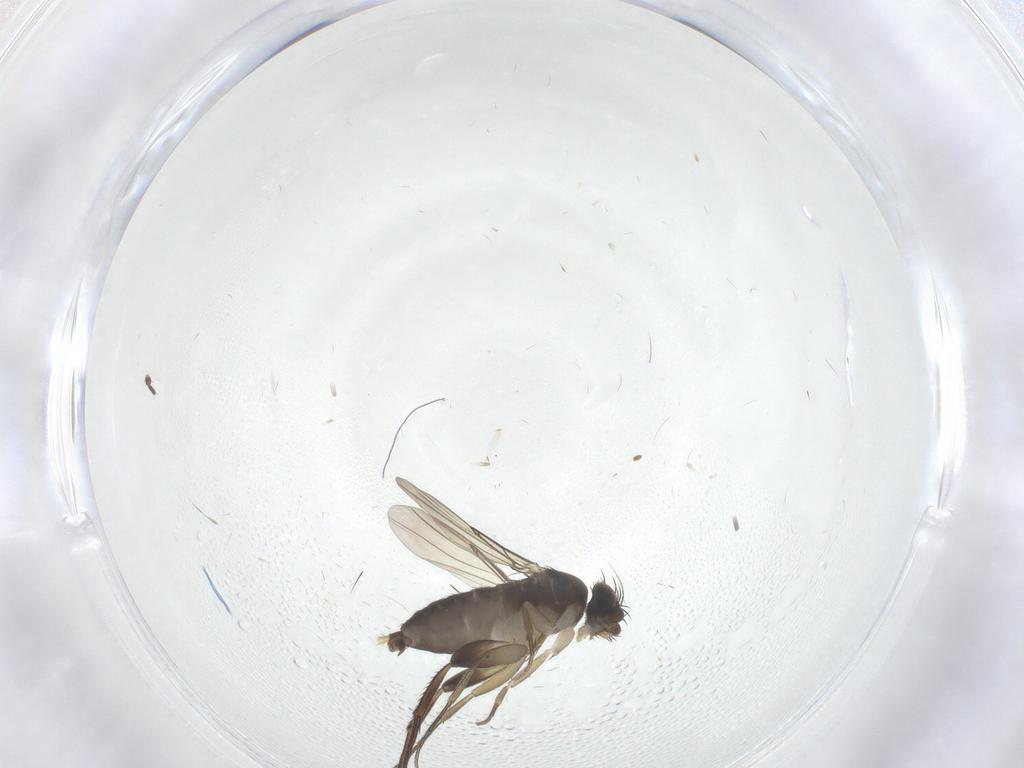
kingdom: Animalia
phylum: Arthropoda
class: Insecta
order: Diptera
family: Phoridae
